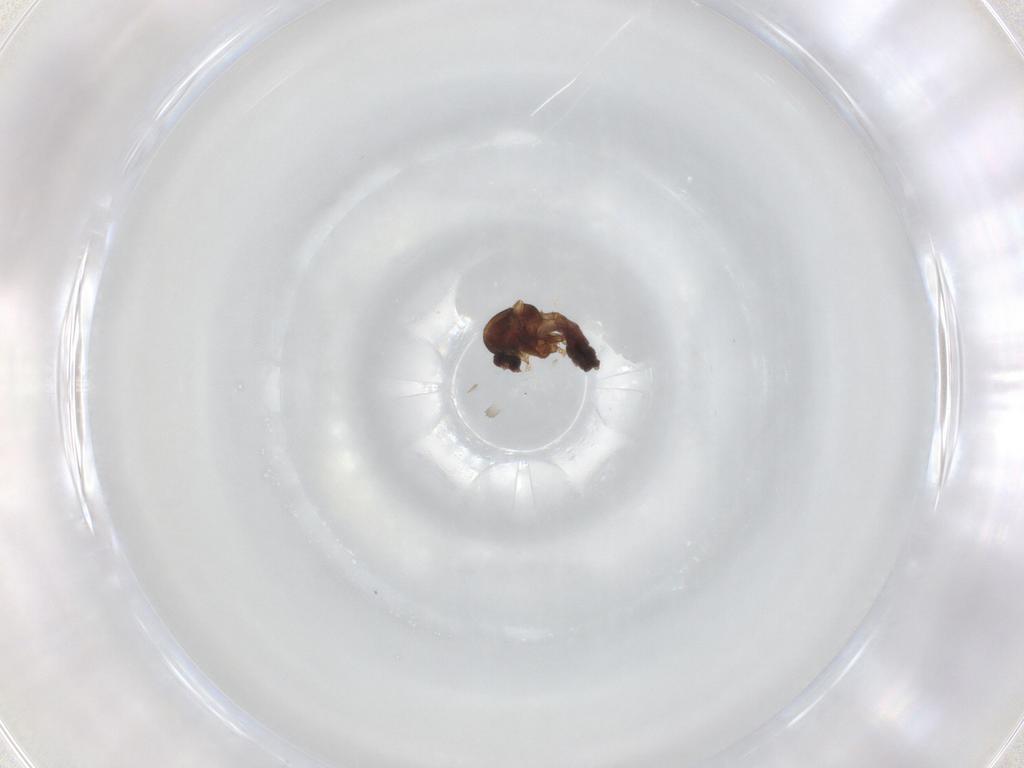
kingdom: Animalia
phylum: Arthropoda
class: Insecta
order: Diptera
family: Ceratopogonidae
